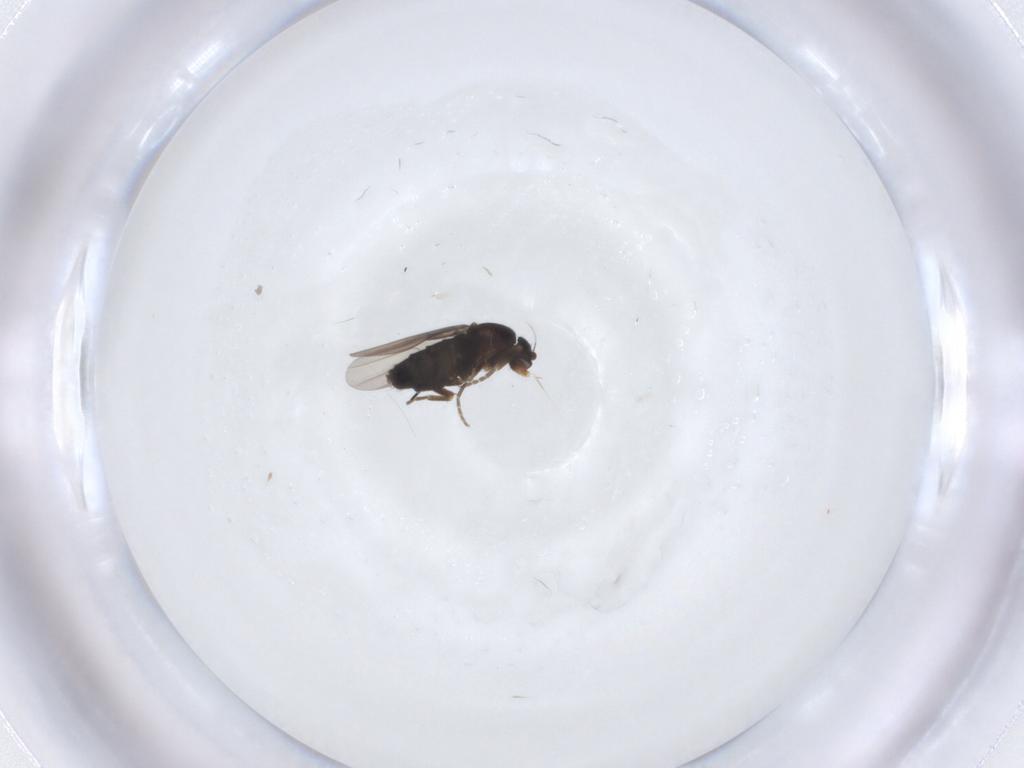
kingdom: Animalia
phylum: Arthropoda
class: Insecta
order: Diptera
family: Phoridae
